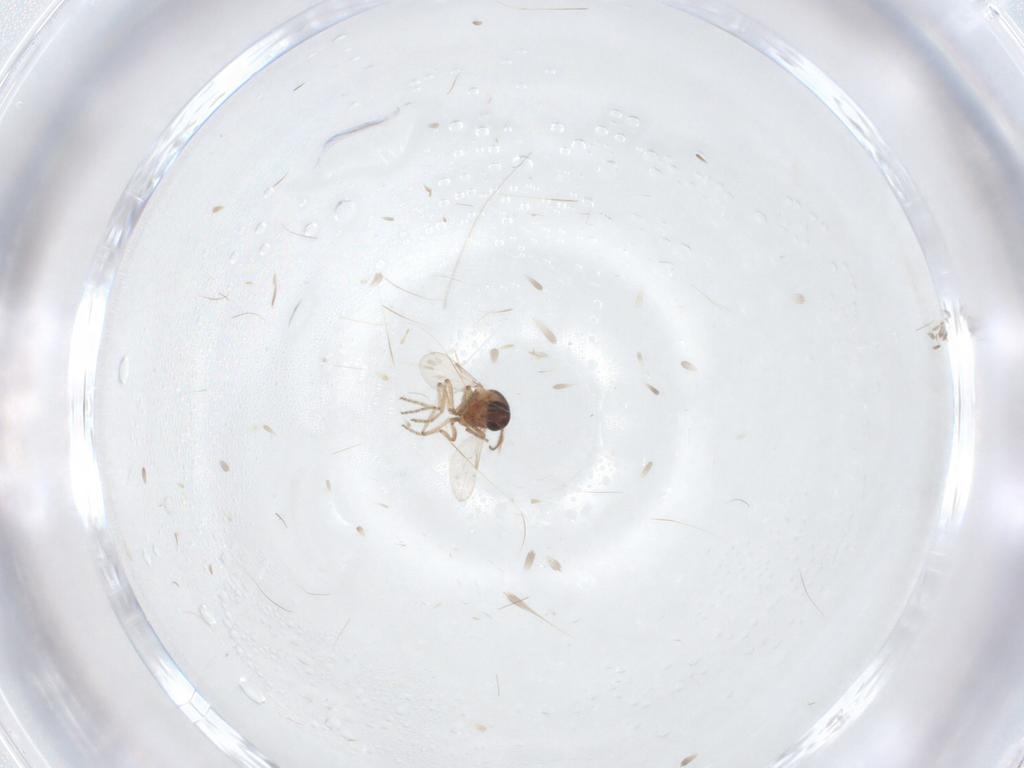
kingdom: Animalia
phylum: Arthropoda
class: Insecta
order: Diptera
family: Ceratopogonidae
